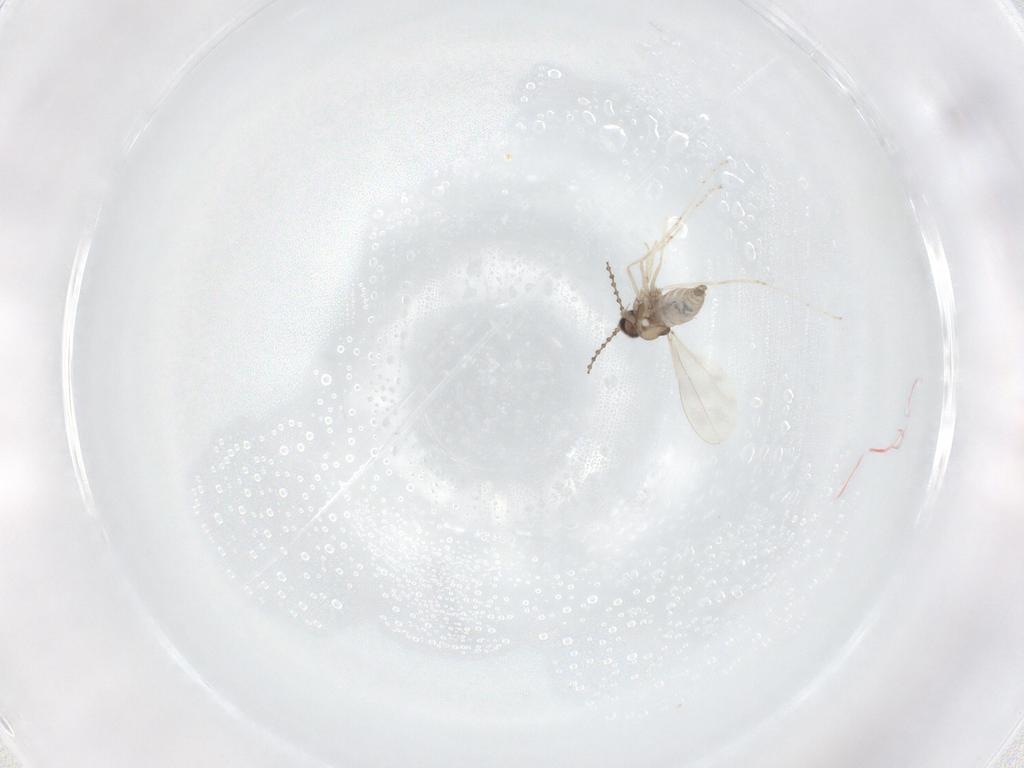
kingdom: Animalia
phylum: Arthropoda
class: Insecta
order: Diptera
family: Cecidomyiidae
